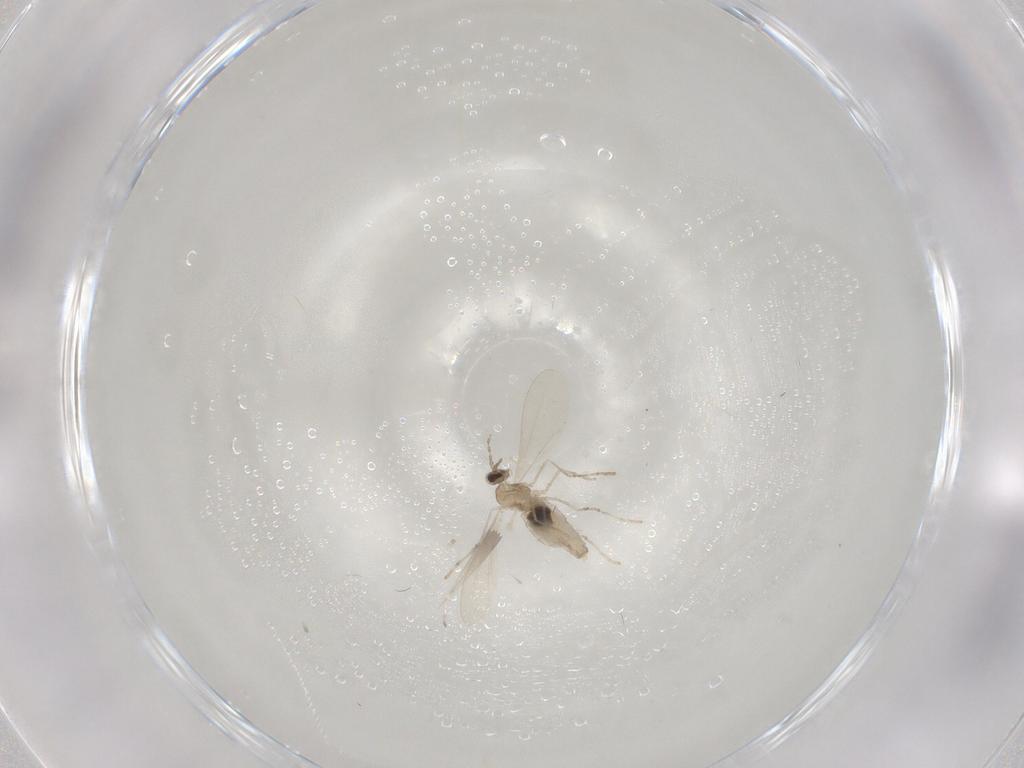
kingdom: Animalia
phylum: Arthropoda
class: Insecta
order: Diptera
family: Cecidomyiidae
